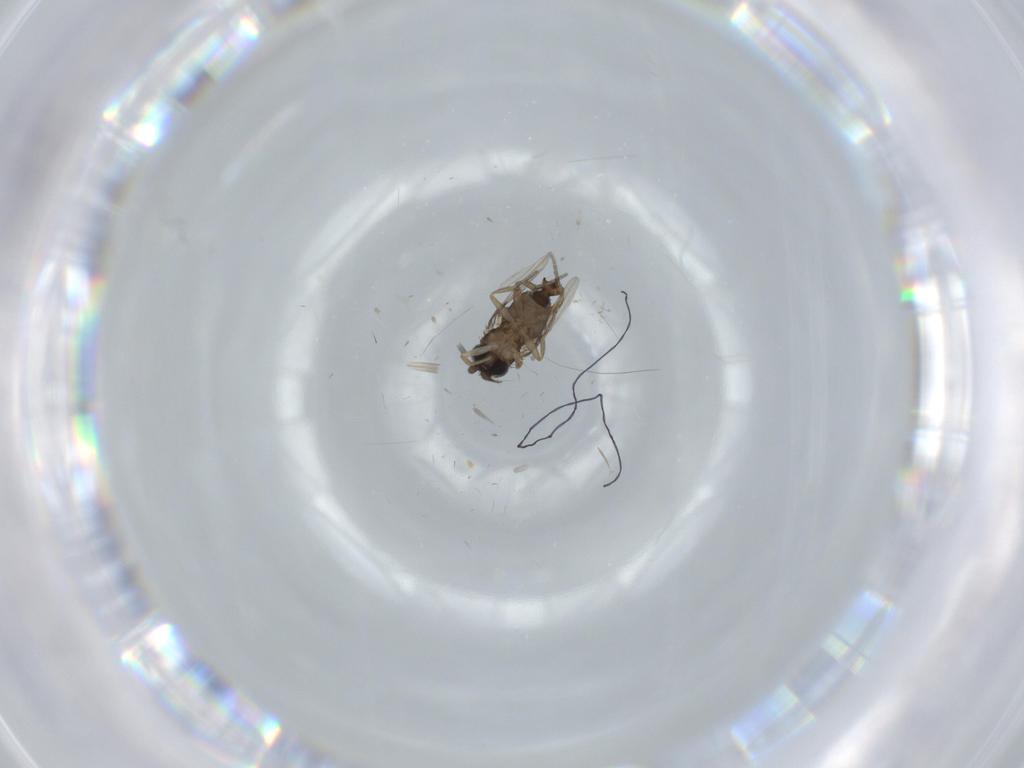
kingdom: Animalia
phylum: Arthropoda
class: Insecta
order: Diptera
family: Phoridae
